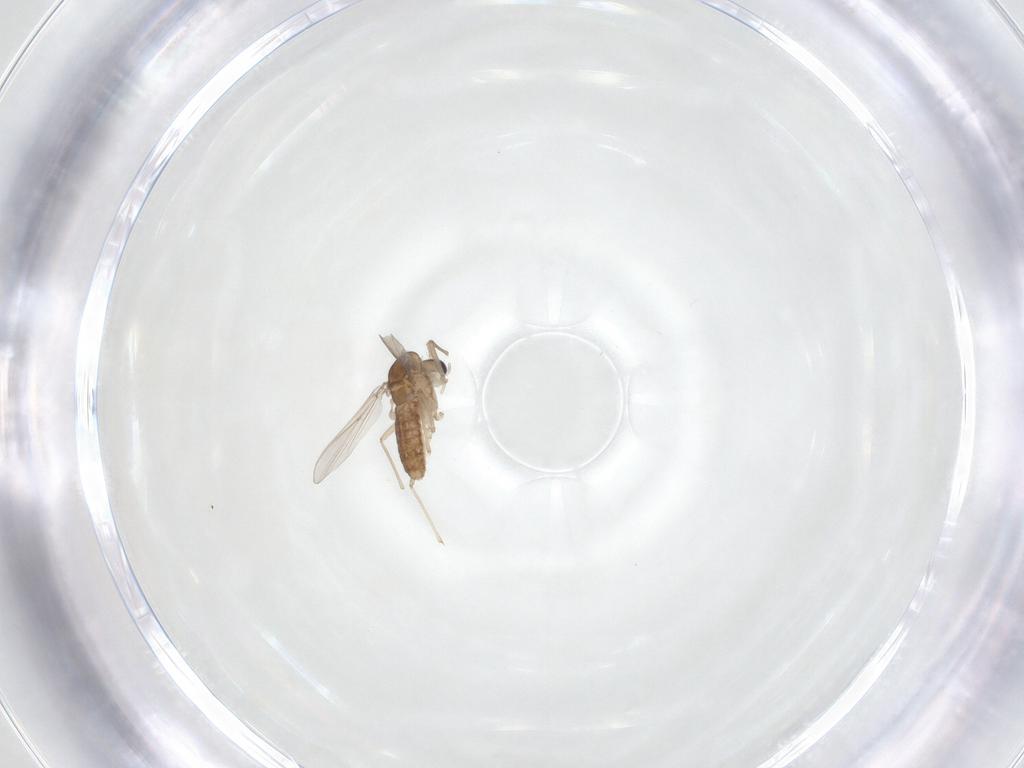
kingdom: Animalia
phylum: Arthropoda
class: Insecta
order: Diptera
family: Chironomidae
